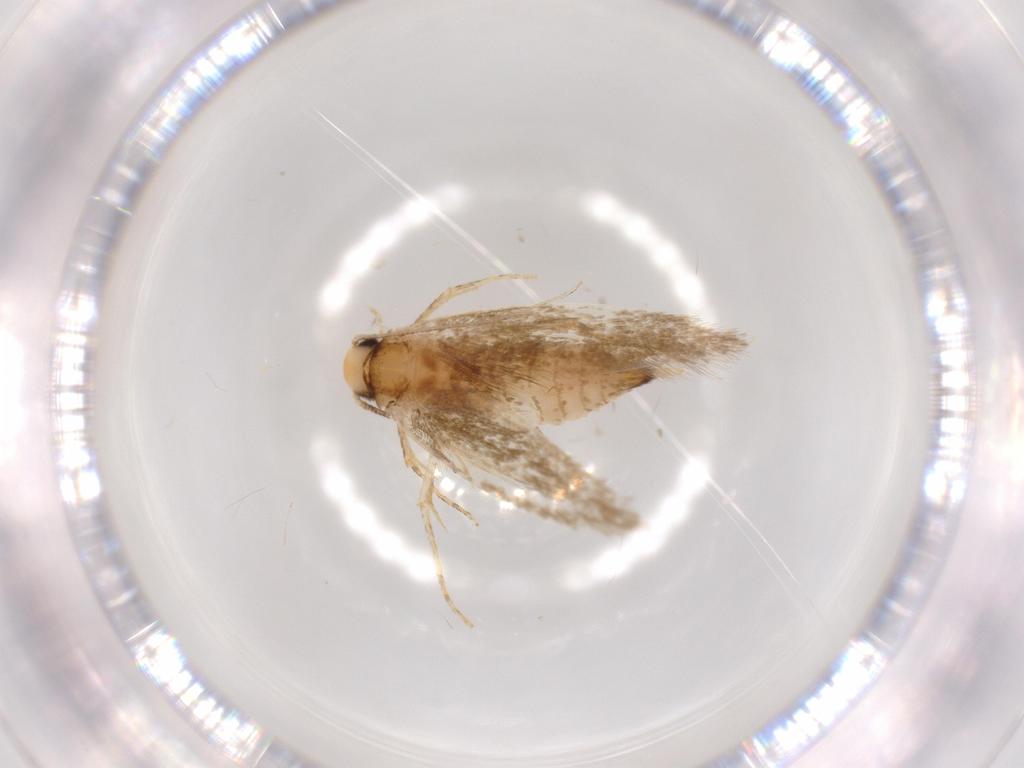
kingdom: Animalia
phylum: Arthropoda
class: Insecta
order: Lepidoptera
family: Tineidae
